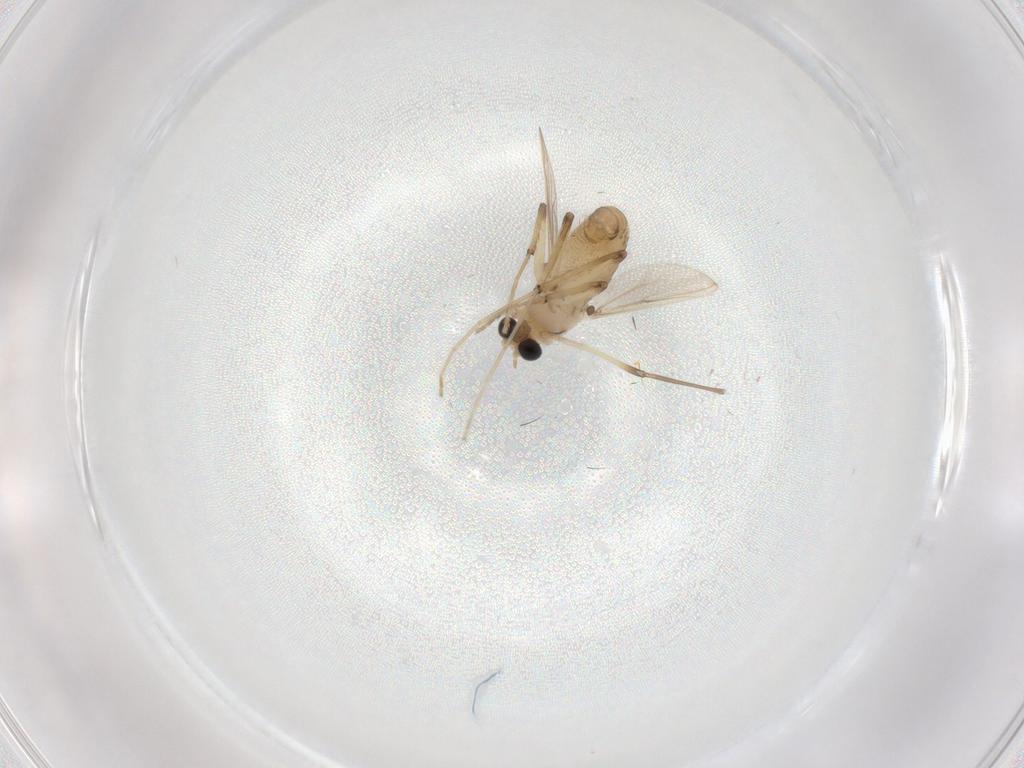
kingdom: Animalia
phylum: Arthropoda
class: Insecta
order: Diptera
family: Chironomidae
